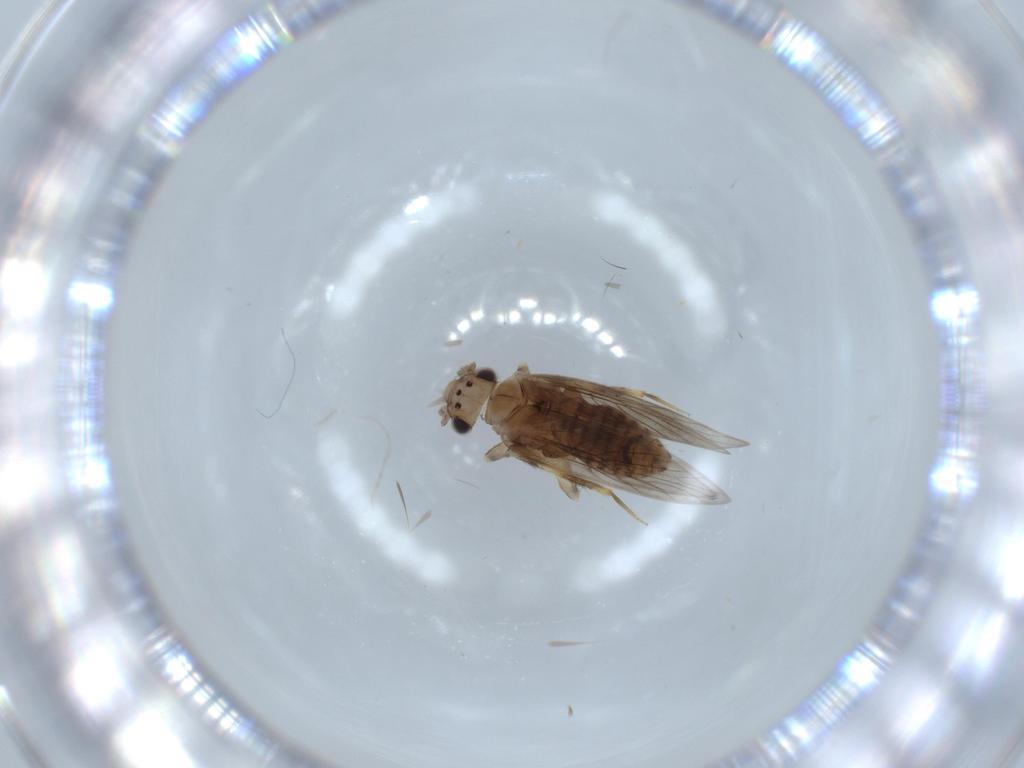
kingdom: Animalia
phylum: Arthropoda
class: Insecta
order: Psocodea
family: Lepidopsocidae
